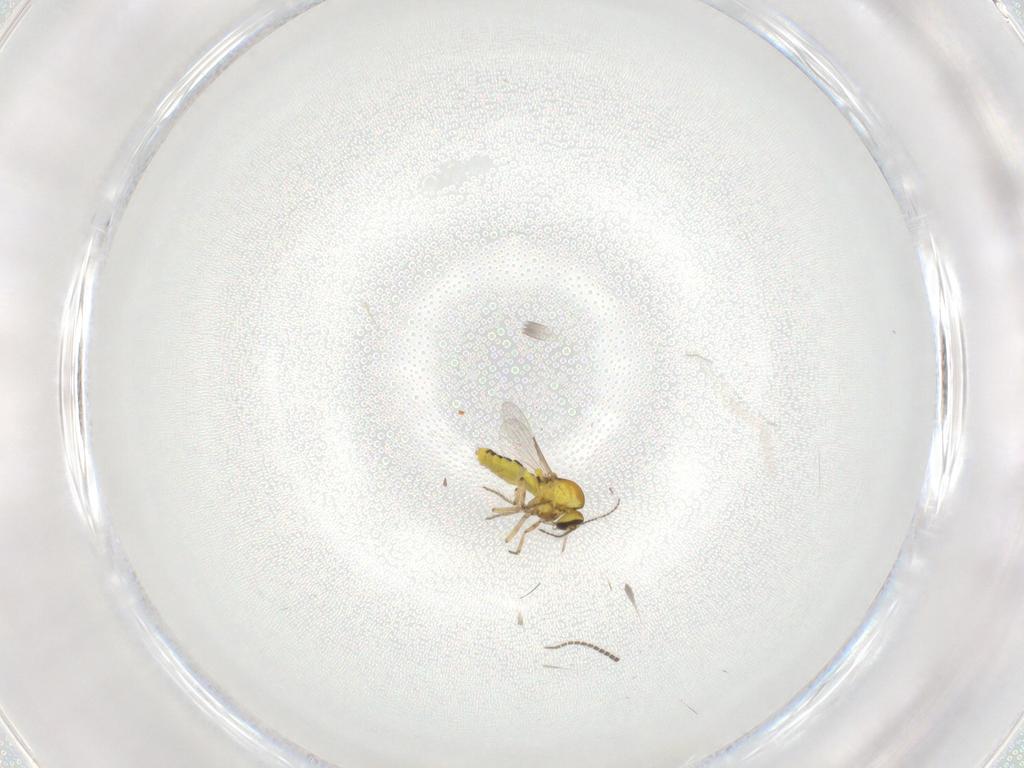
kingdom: Animalia
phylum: Arthropoda
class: Insecta
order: Diptera
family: Ceratopogonidae
